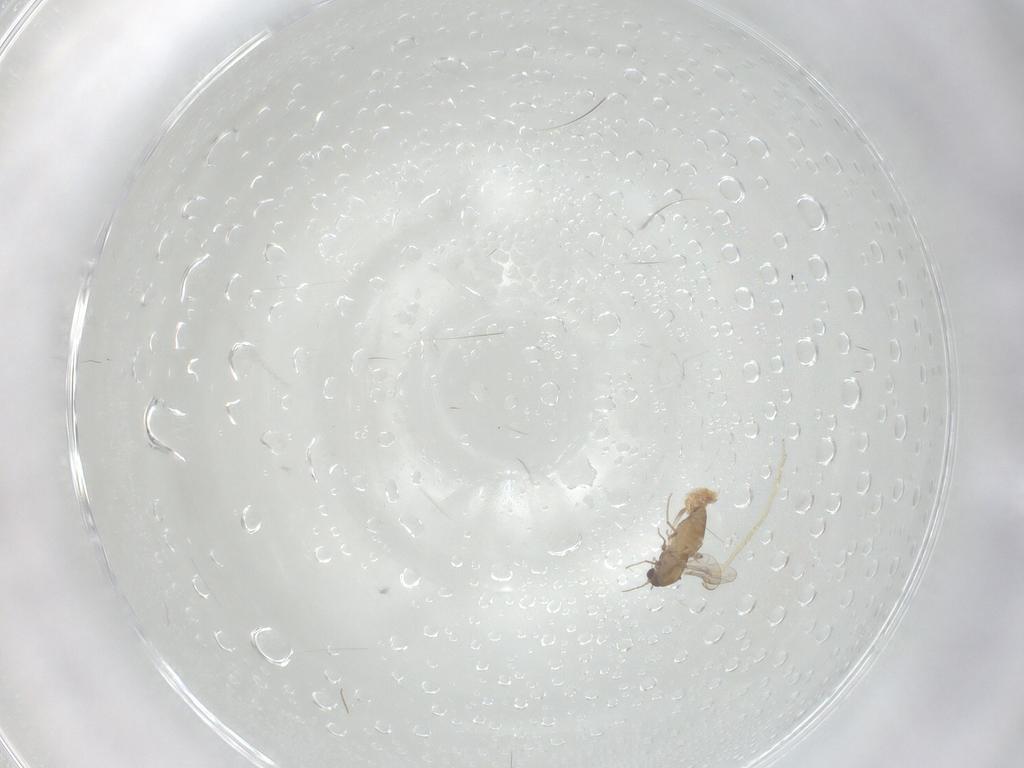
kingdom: Animalia
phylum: Arthropoda
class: Insecta
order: Diptera
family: Chironomidae
